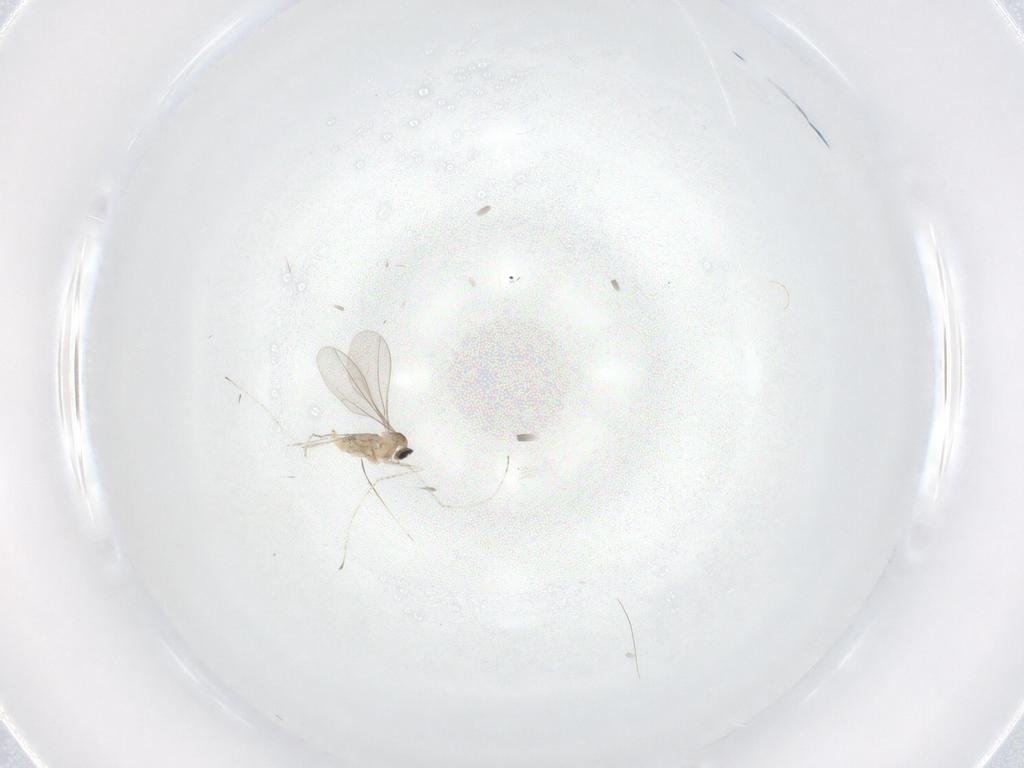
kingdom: Animalia
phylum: Arthropoda
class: Insecta
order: Diptera
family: Cecidomyiidae
